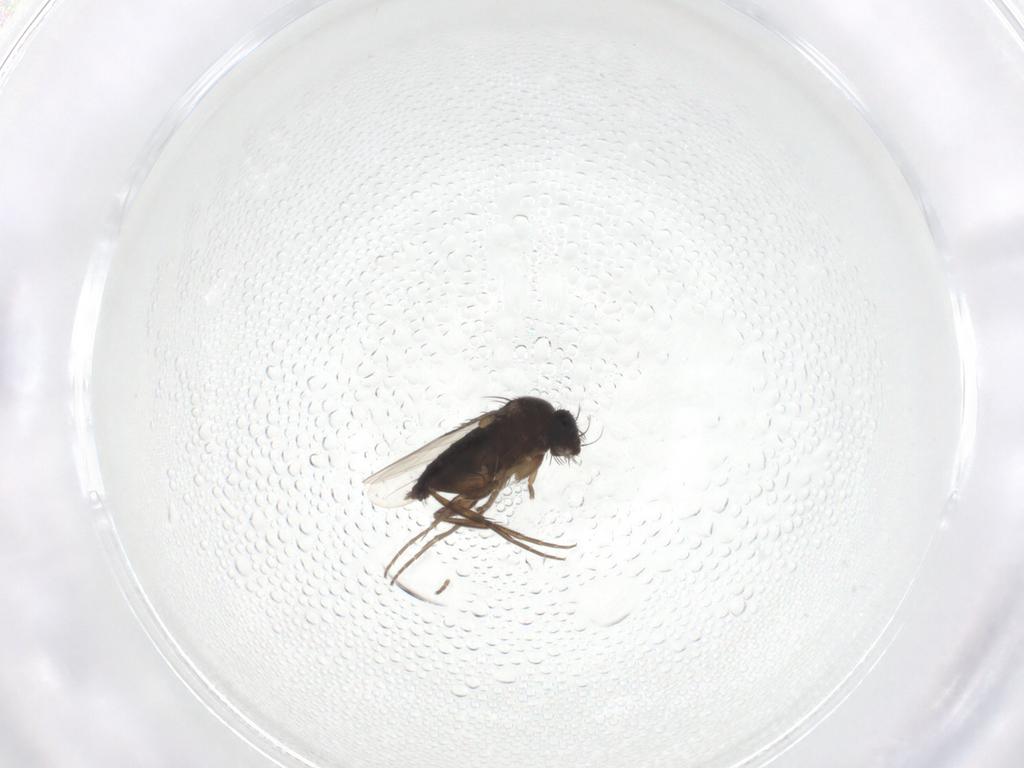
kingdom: Animalia
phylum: Arthropoda
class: Insecta
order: Diptera
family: Phoridae
